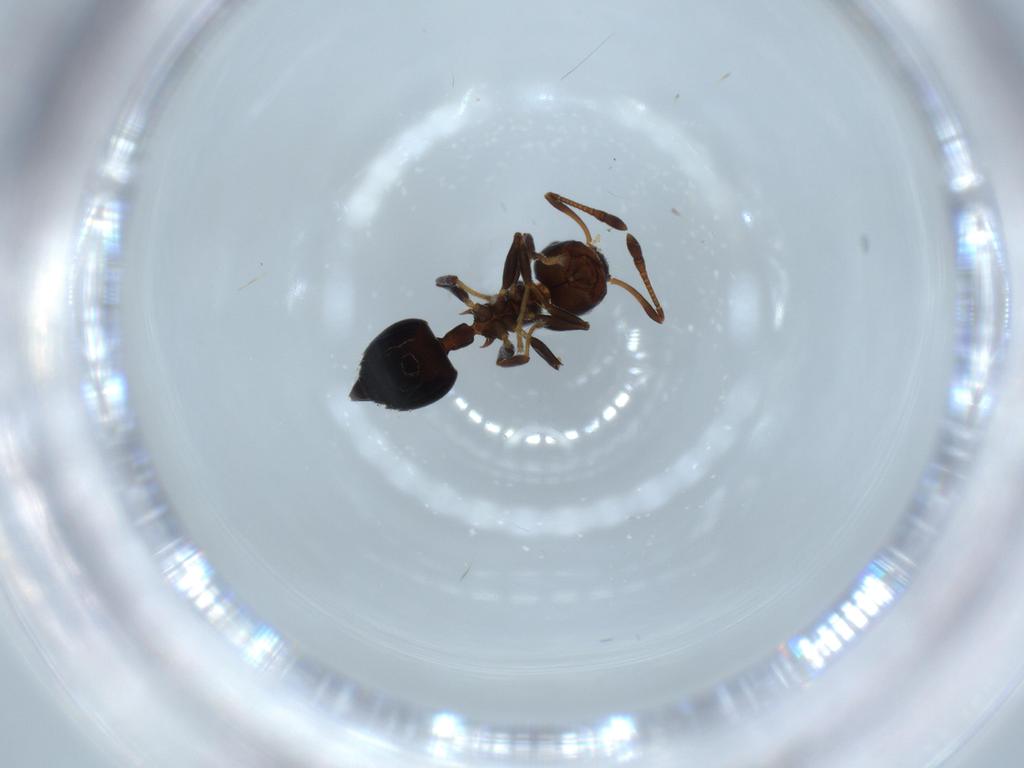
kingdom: Animalia
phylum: Arthropoda
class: Insecta
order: Hymenoptera
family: Formicidae
